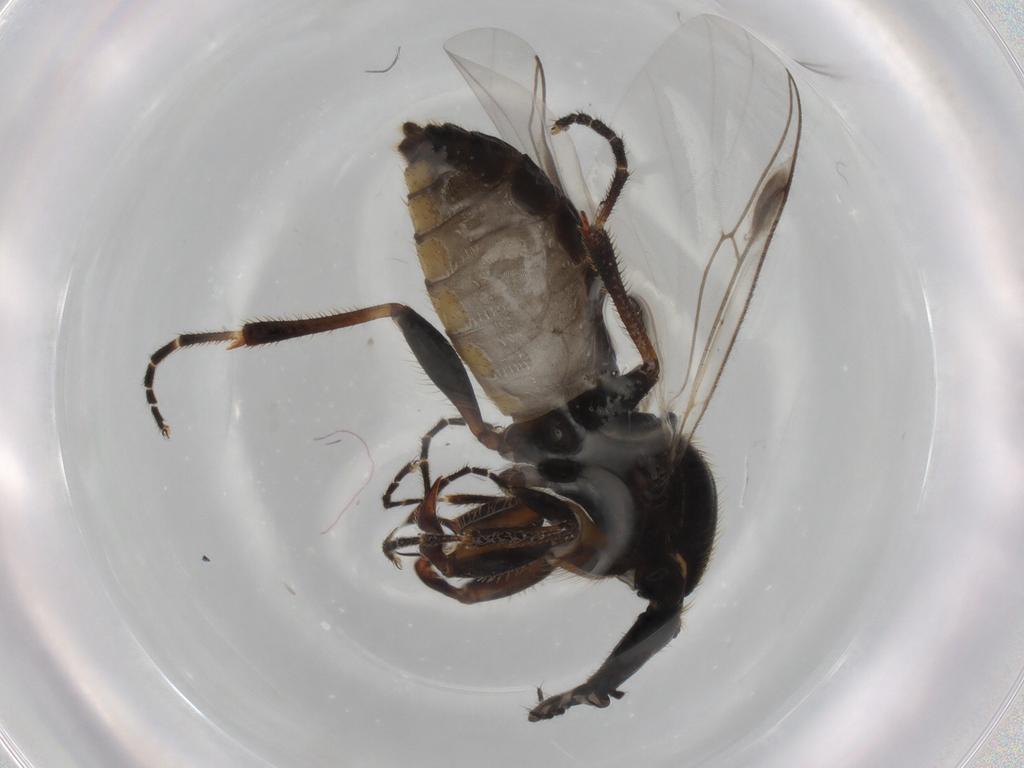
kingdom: Animalia
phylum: Arthropoda
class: Insecta
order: Diptera
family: Bibionidae
